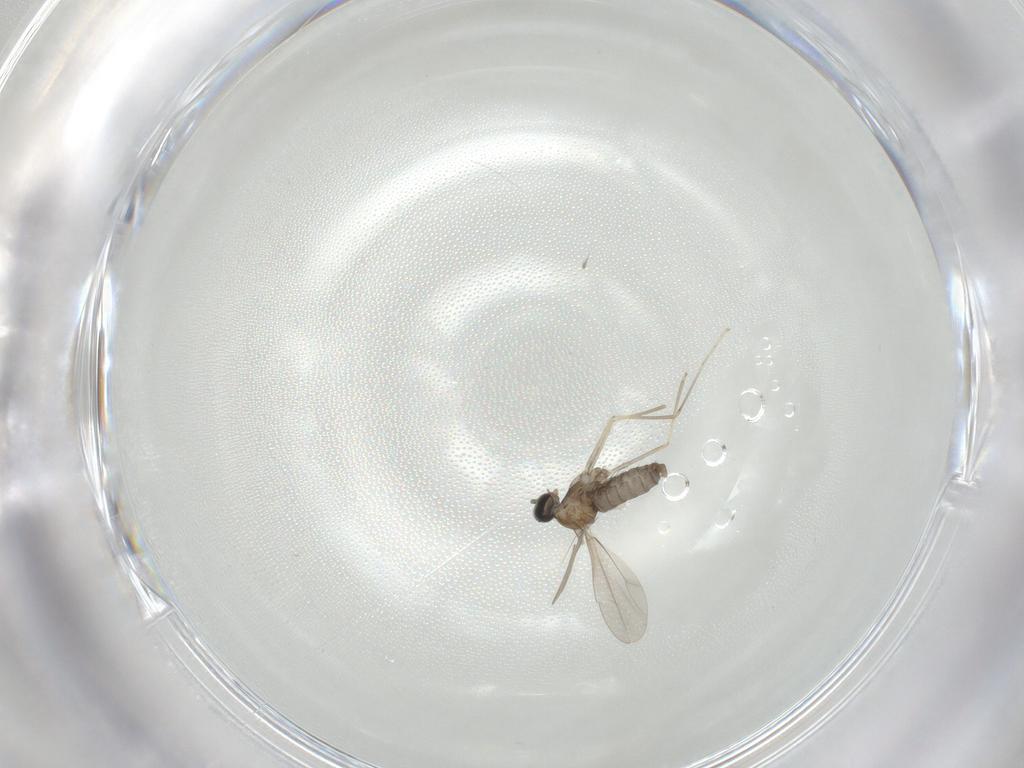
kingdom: Animalia
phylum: Arthropoda
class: Insecta
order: Diptera
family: Cecidomyiidae
